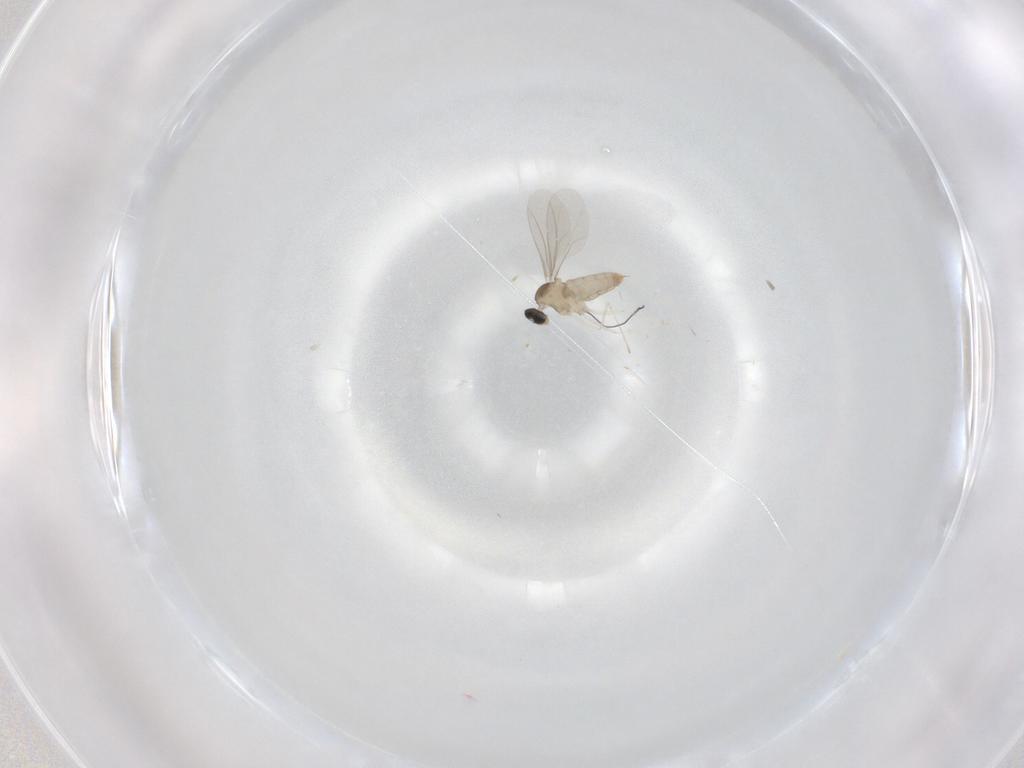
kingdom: Animalia
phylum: Arthropoda
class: Insecta
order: Diptera
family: Cecidomyiidae
